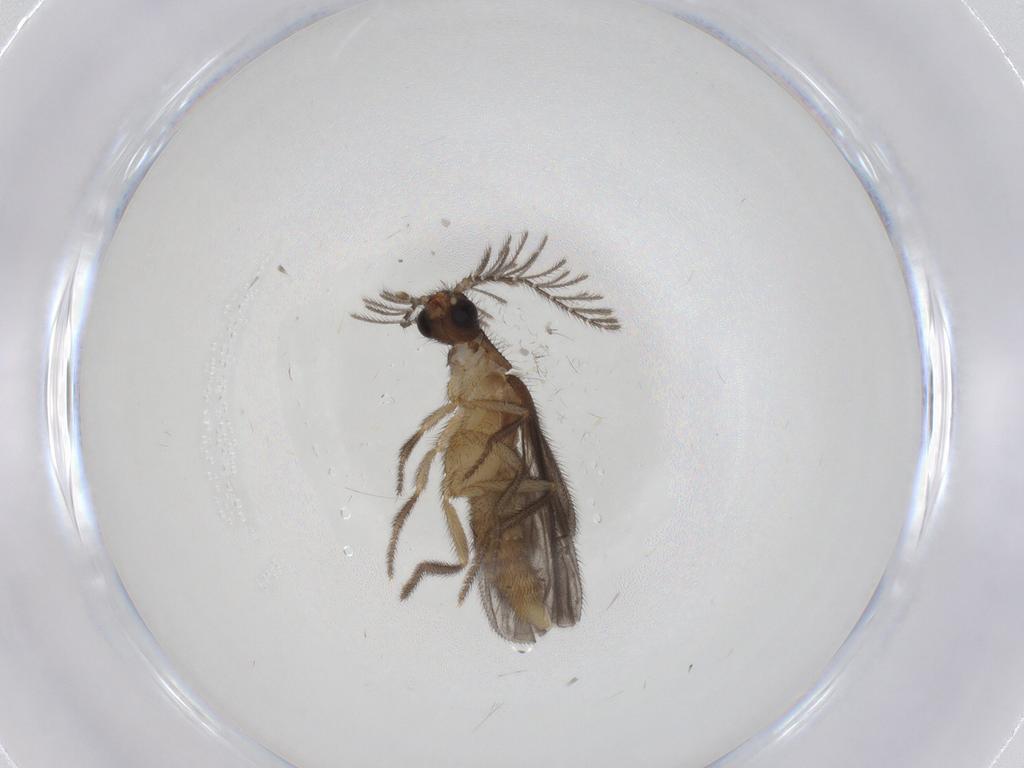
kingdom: Animalia
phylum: Arthropoda
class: Insecta
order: Coleoptera
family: Phengodidae
